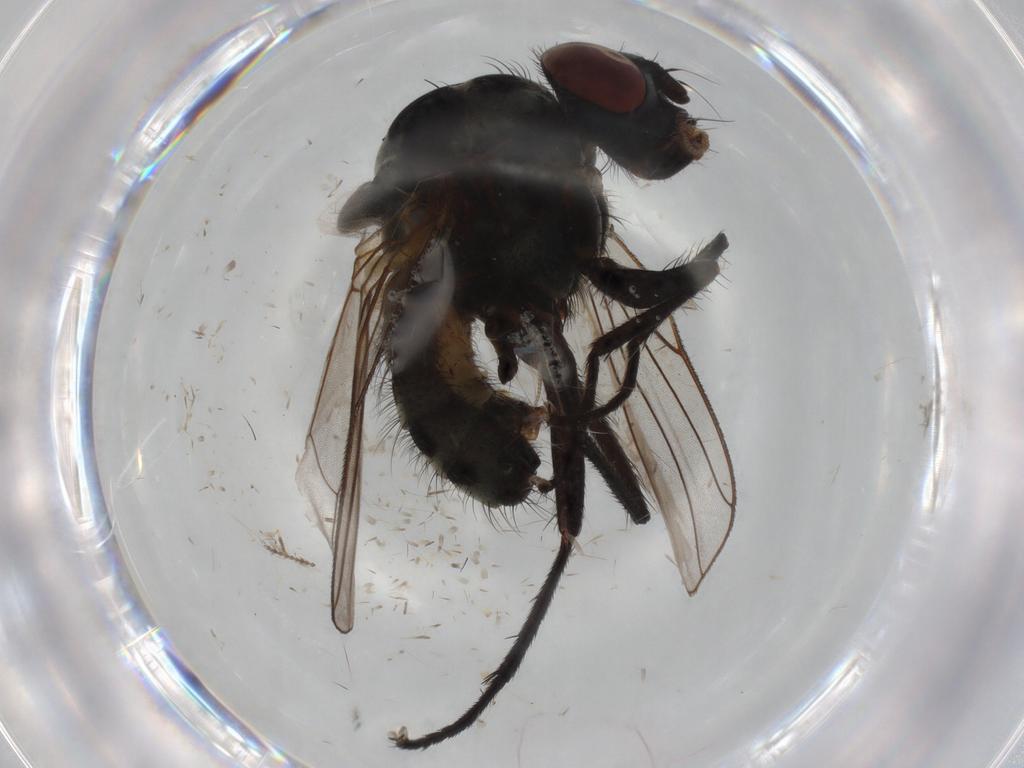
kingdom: Animalia
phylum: Arthropoda
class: Insecta
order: Diptera
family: Anthomyiidae
